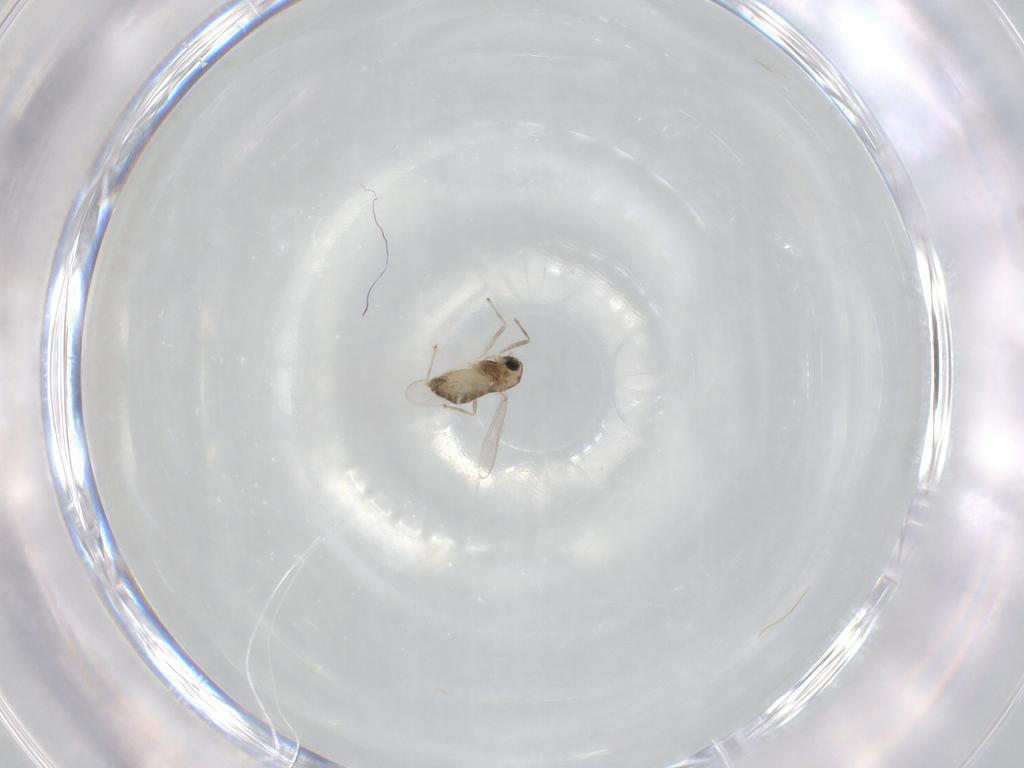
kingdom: Animalia
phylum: Arthropoda
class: Insecta
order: Diptera
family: Chironomidae
